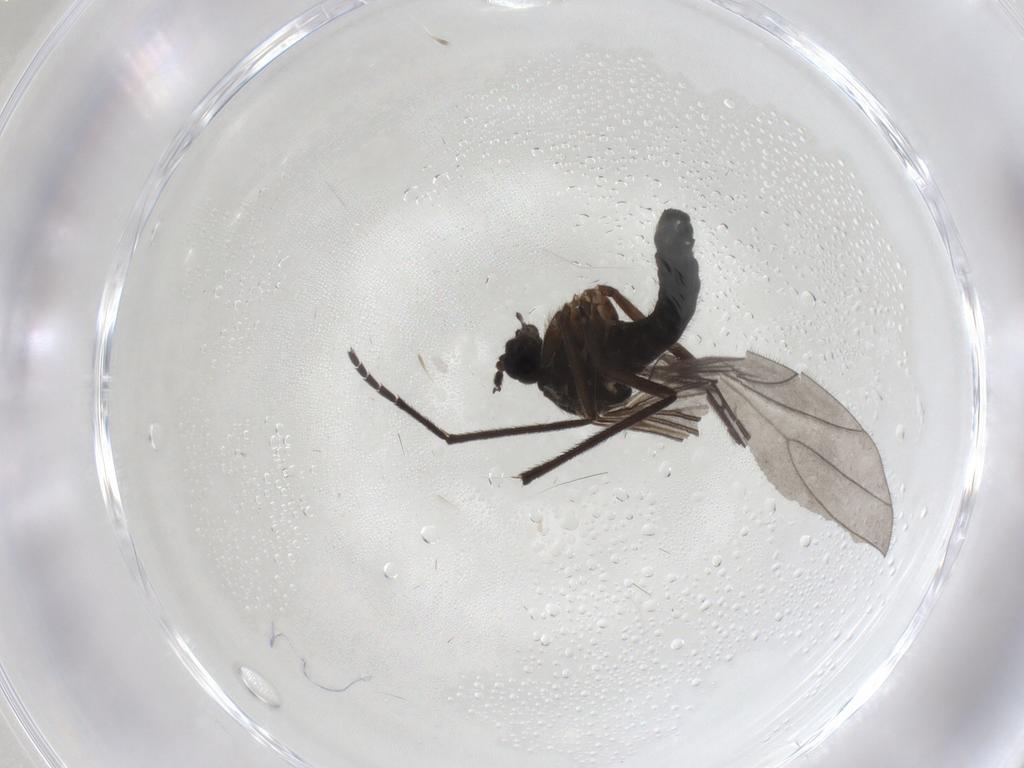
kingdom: Animalia
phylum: Arthropoda
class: Insecta
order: Diptera
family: Sciaridae
